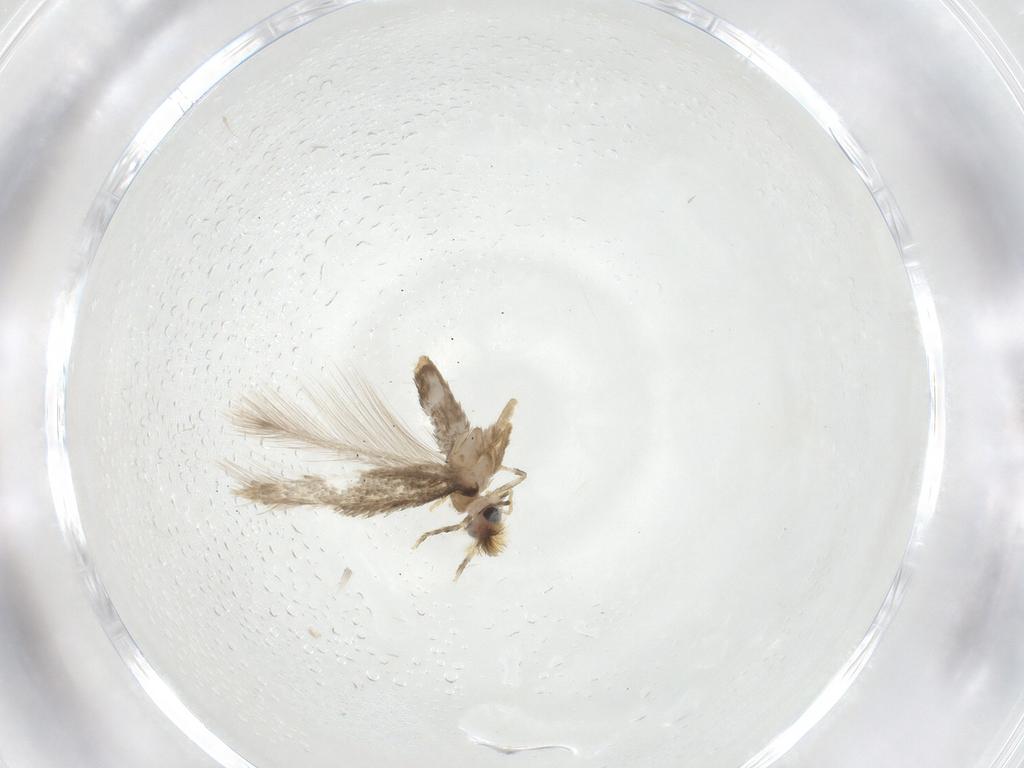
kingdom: Animalia
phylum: Arthropoda
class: Insecta
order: Lepidoptera
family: Nepticulidae
